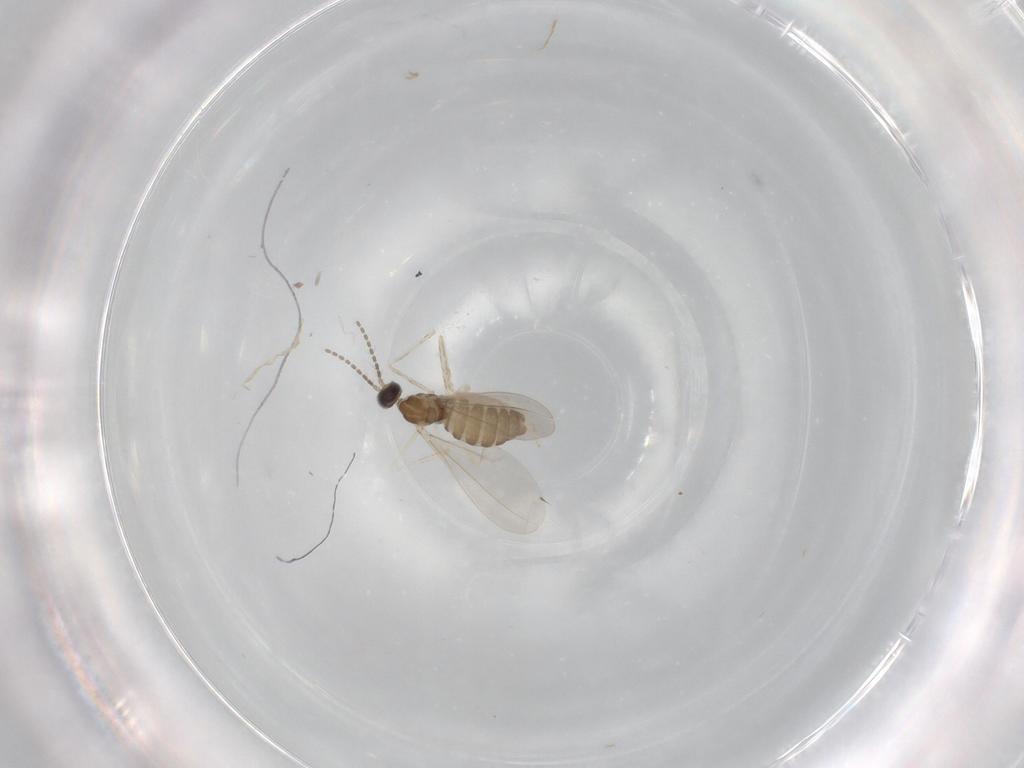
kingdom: Animalia
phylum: Arthropoda
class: Insecta
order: Diptera
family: Cecidomyiidae
